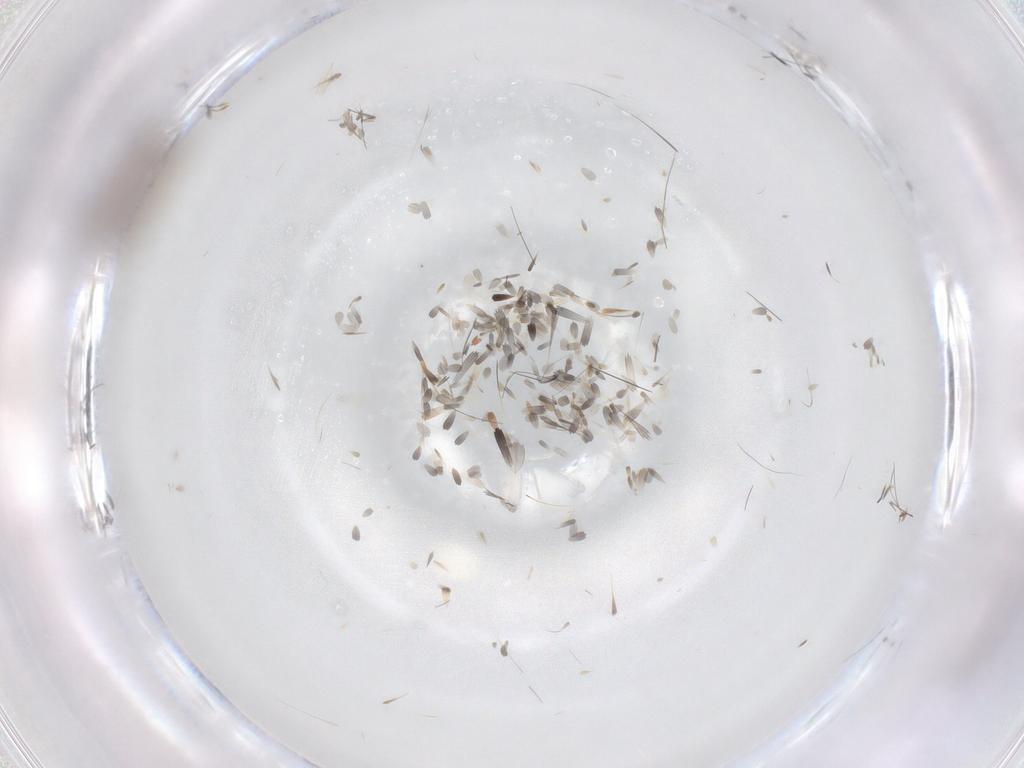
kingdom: Animalia
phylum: Arthropoda
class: Insecta
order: Diptera
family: Chironomidae
